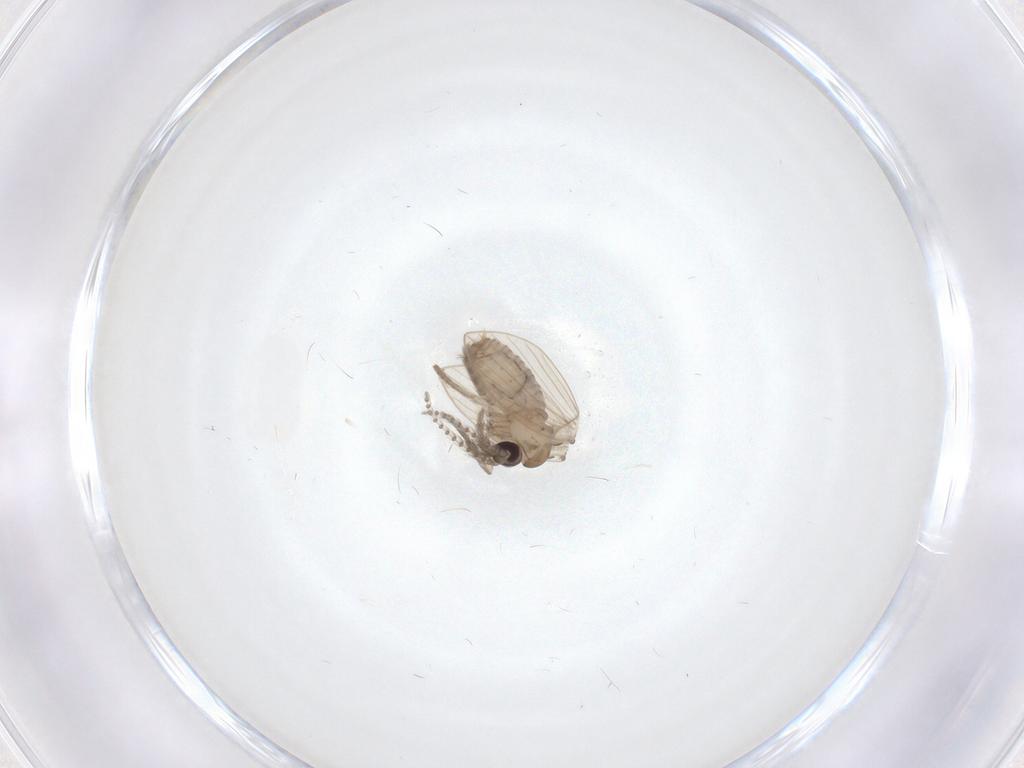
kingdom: Animalia
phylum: Arthropoda
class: Insecta
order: Diptera
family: Psychodidae
